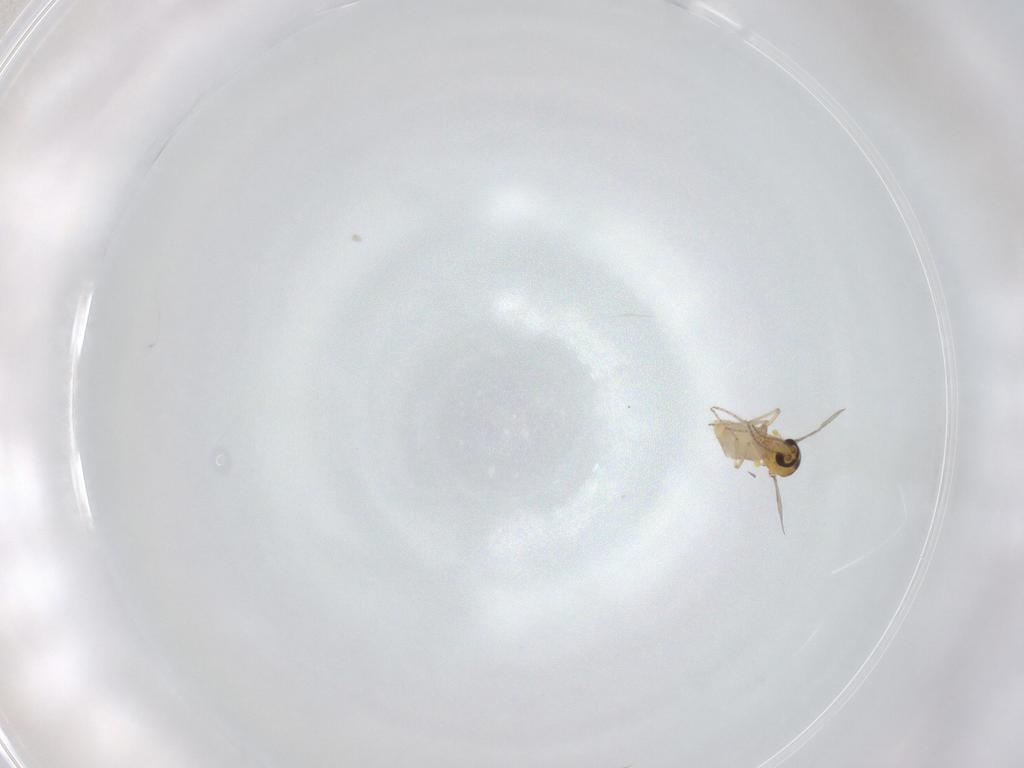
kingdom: Animalia
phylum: Arthropoda
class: Insecta
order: Diptera
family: Ceratopogonidae
